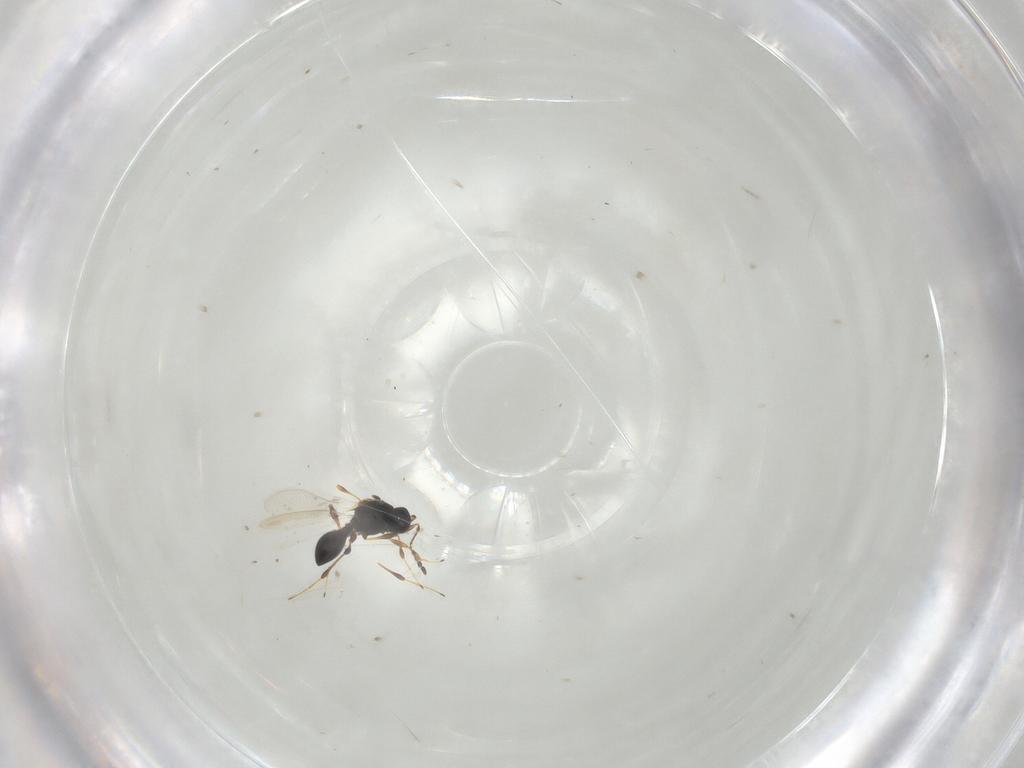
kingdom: Animalia
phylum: Arthropoda
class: Insecta
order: Hymenoptera
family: Platygastridae
